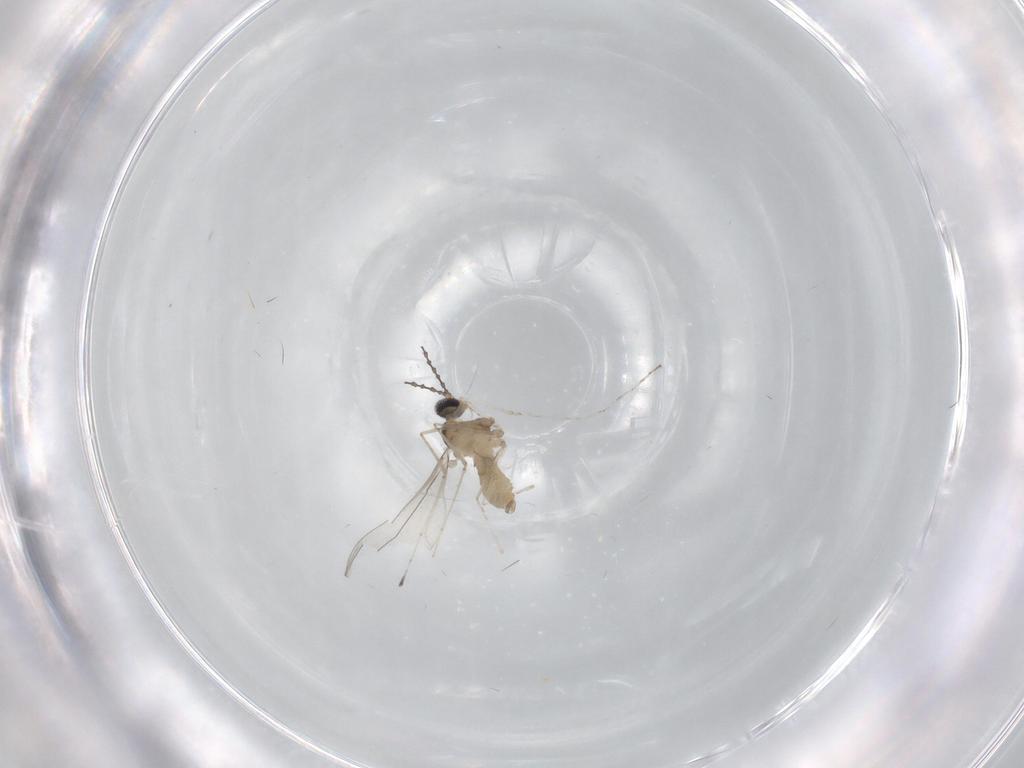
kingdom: Animalia
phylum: Arthropoda
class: Insecta
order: Diptera
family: Cecidomyiidae
